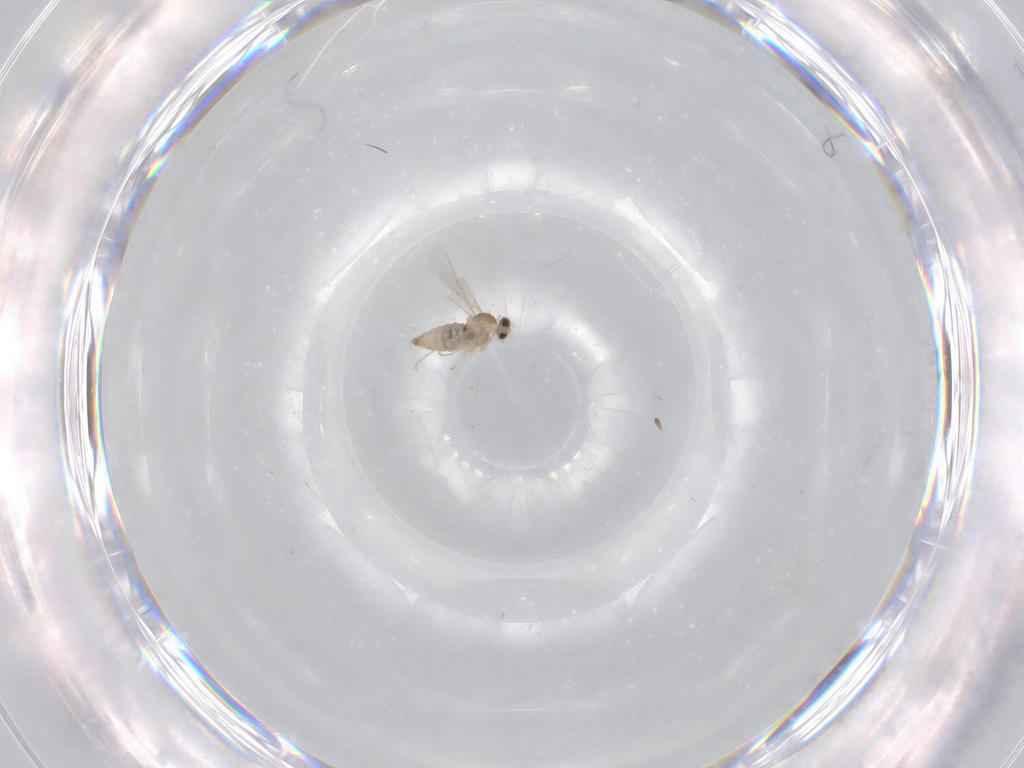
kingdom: Animalia
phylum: Arthropoda
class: Insecta
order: Diptera
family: Cecidomyiidae
